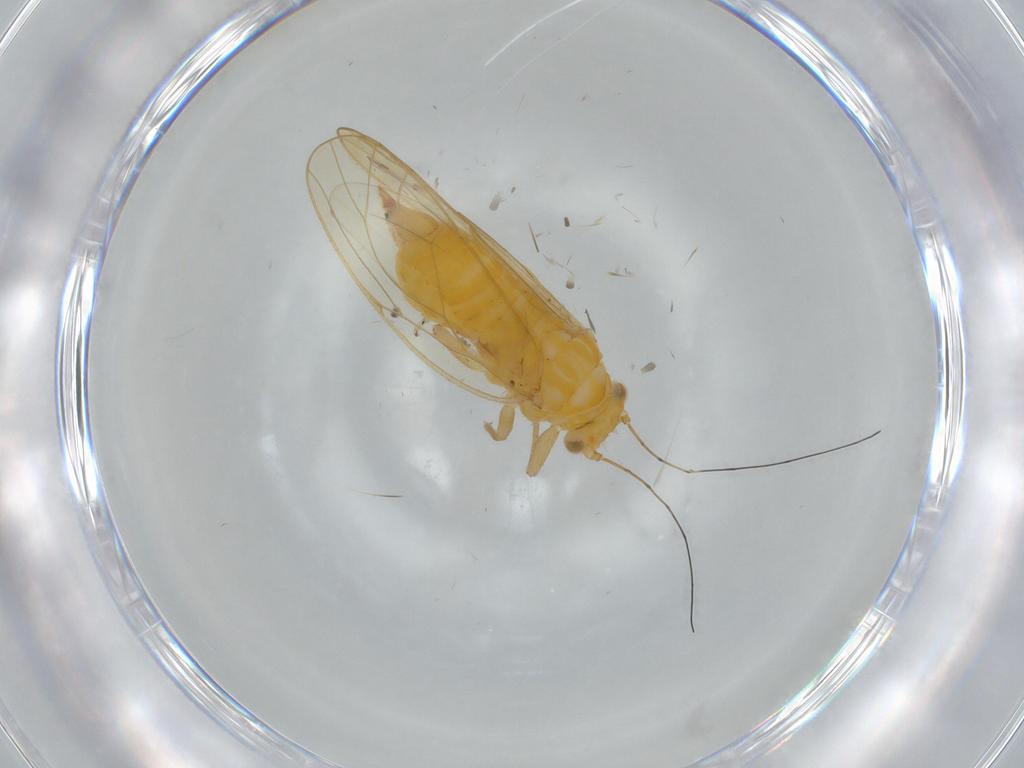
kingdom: Animalia
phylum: Arthropoda
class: Insecta
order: Hemiptera
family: Psyllidae
